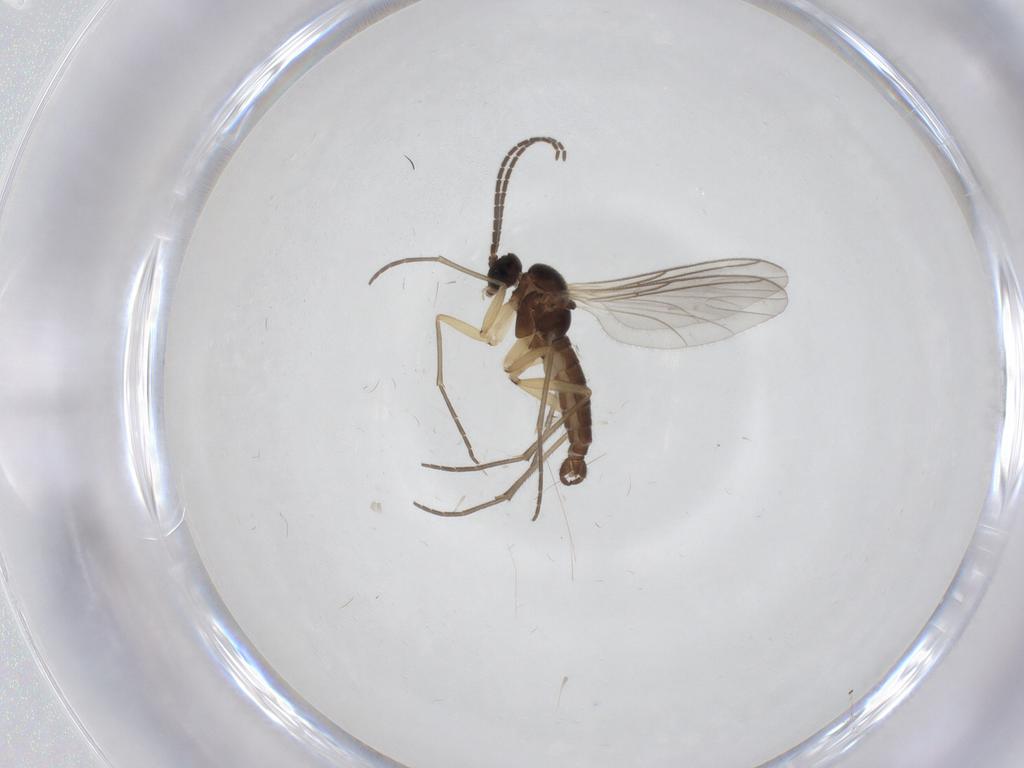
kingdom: Animalia
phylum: Arthropoda
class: Insecta
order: Diptera
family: Sciaridae
